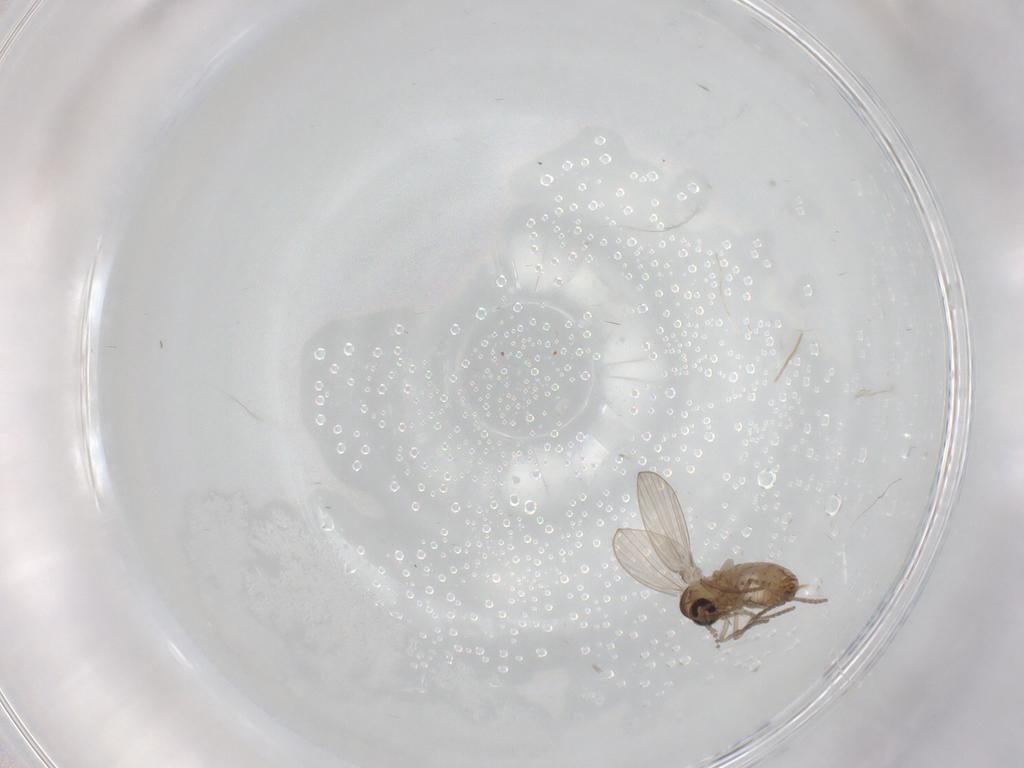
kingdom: Animalia
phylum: Arthropoda
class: Insecta
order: Diptera
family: Psychodidae
